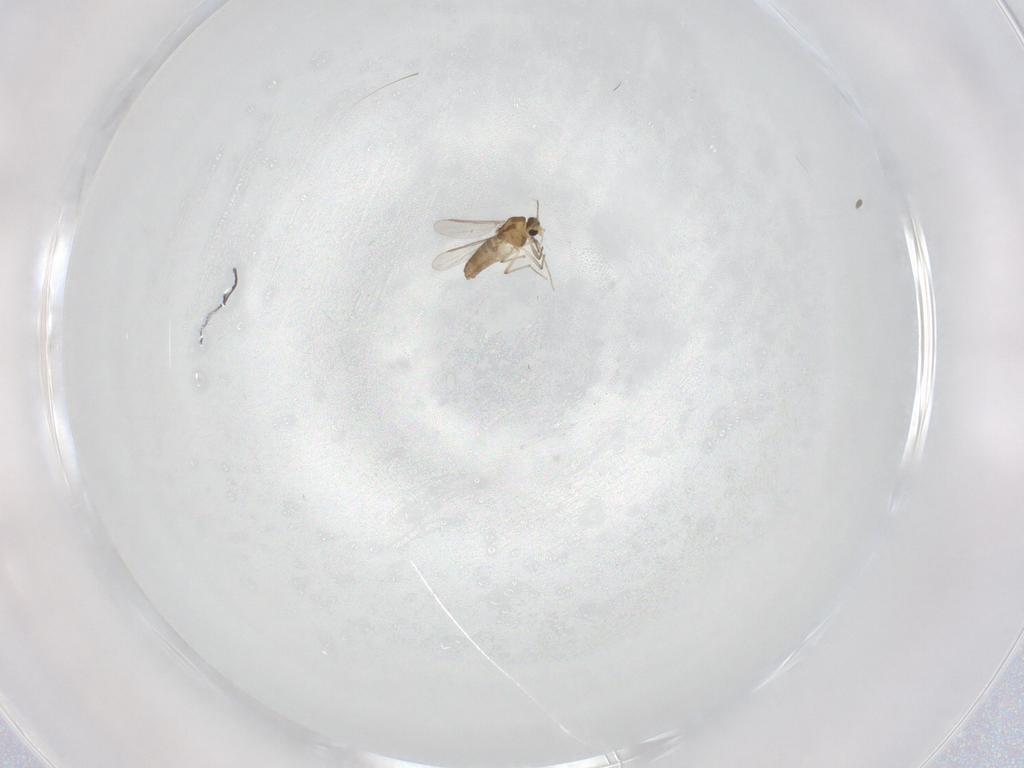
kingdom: Animalia
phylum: Arthropoda
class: Insecta
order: Diptera
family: Chironomidae
